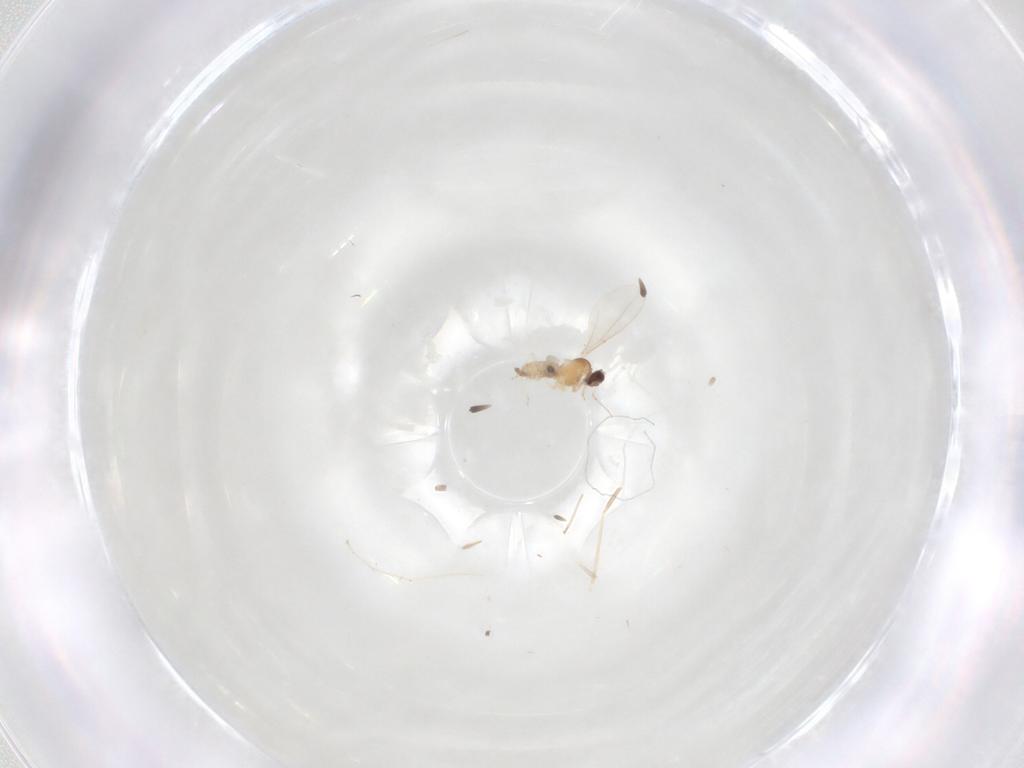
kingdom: Animalia
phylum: Arthropoda
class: Insecta
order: Diptera
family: Cecidomyiidae
